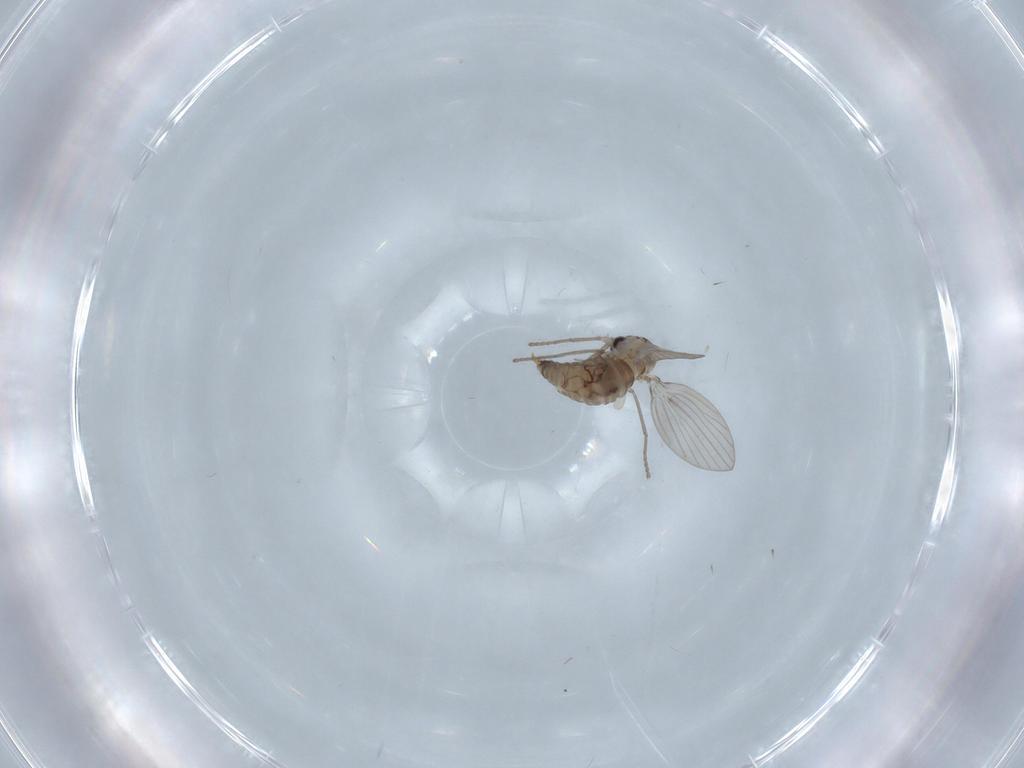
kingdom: Animalia
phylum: Arthropoda
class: Insecta
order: Diptera
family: Psychodidae
